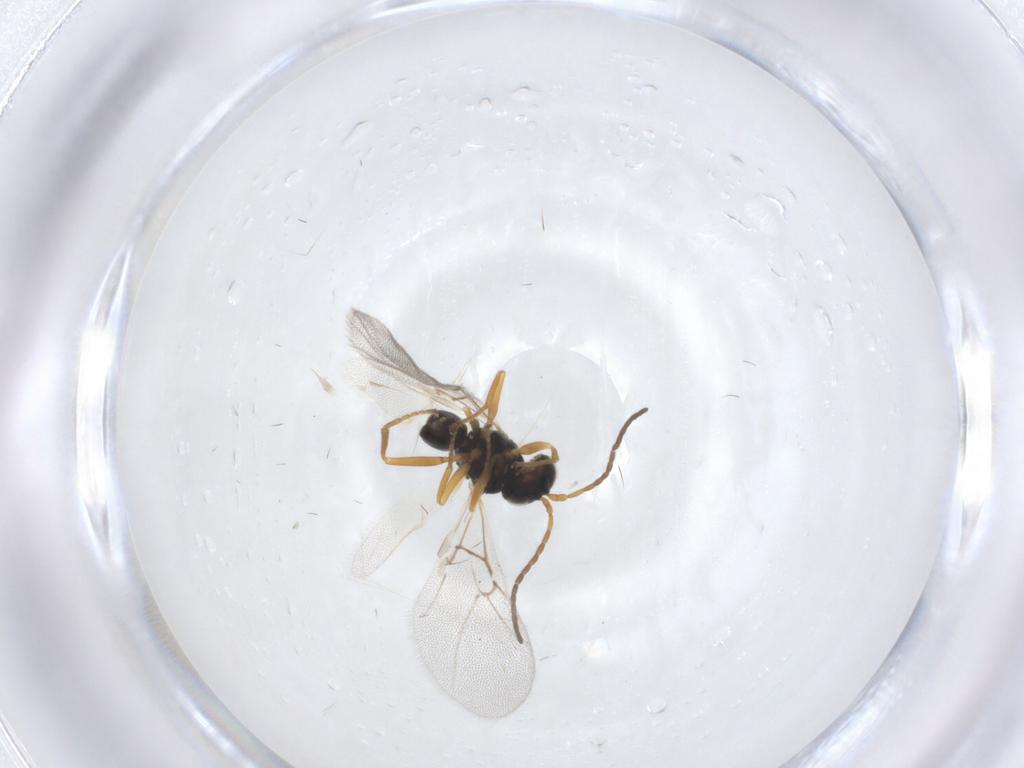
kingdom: Animalia
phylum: Arthropoda
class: Insecta
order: Hymenoptera
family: Cynipidae
